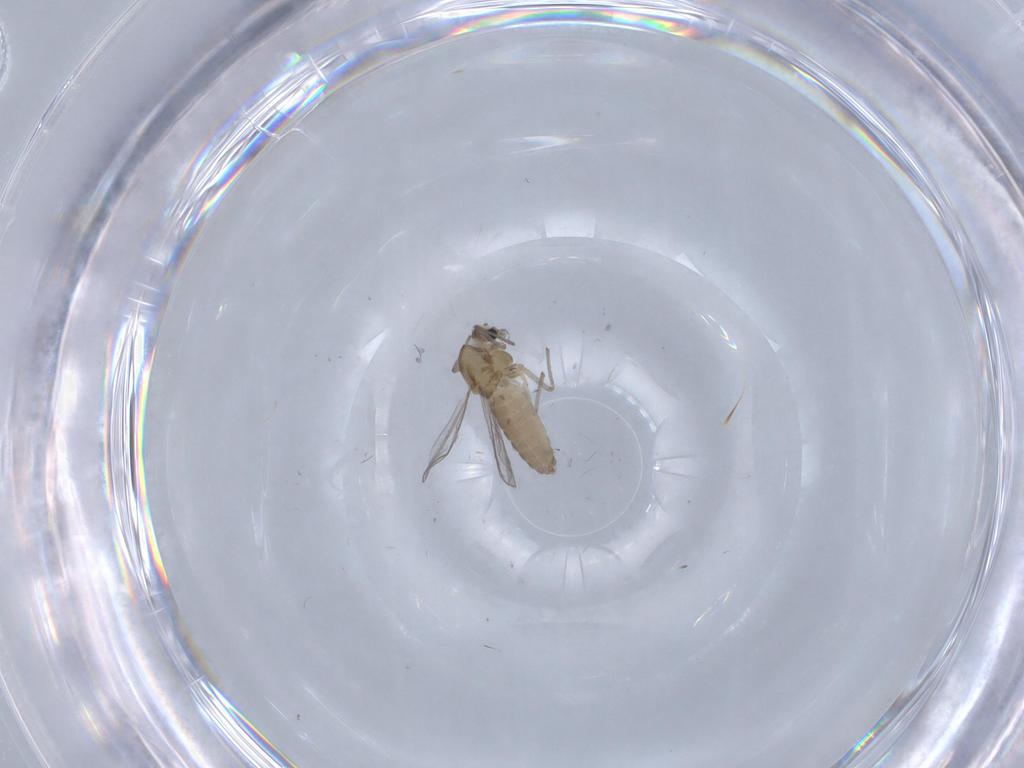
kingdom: Animalia
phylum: Arthropoda
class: Insecta
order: Diptera
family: Chironomidae
